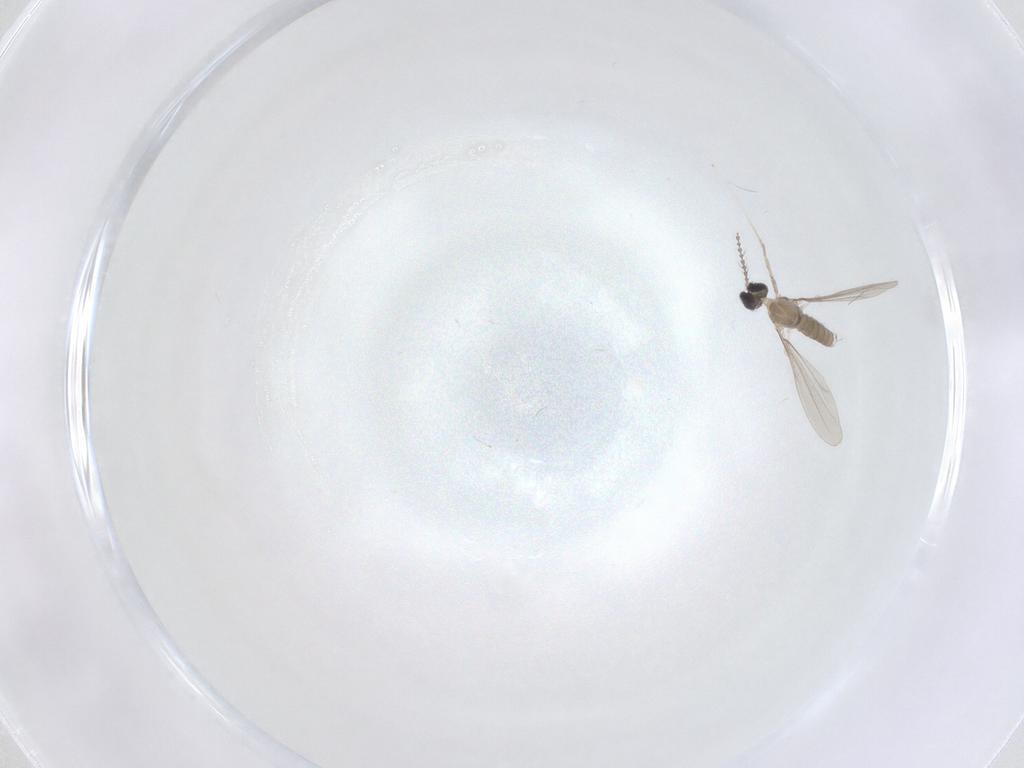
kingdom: Animalia
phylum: Arthropoda
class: Insecta
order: Diptera
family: Cecidomyiidae
